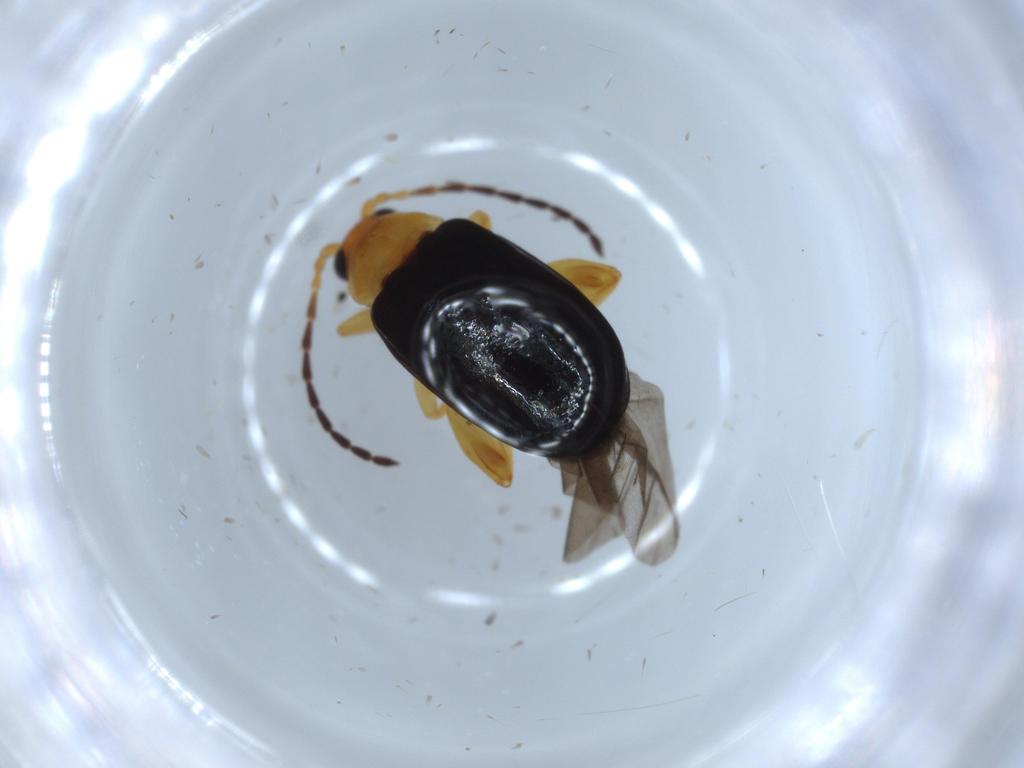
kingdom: Animalia
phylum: Arthropoda
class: Insecta
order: Coleoptera
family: Chrysomelidae
